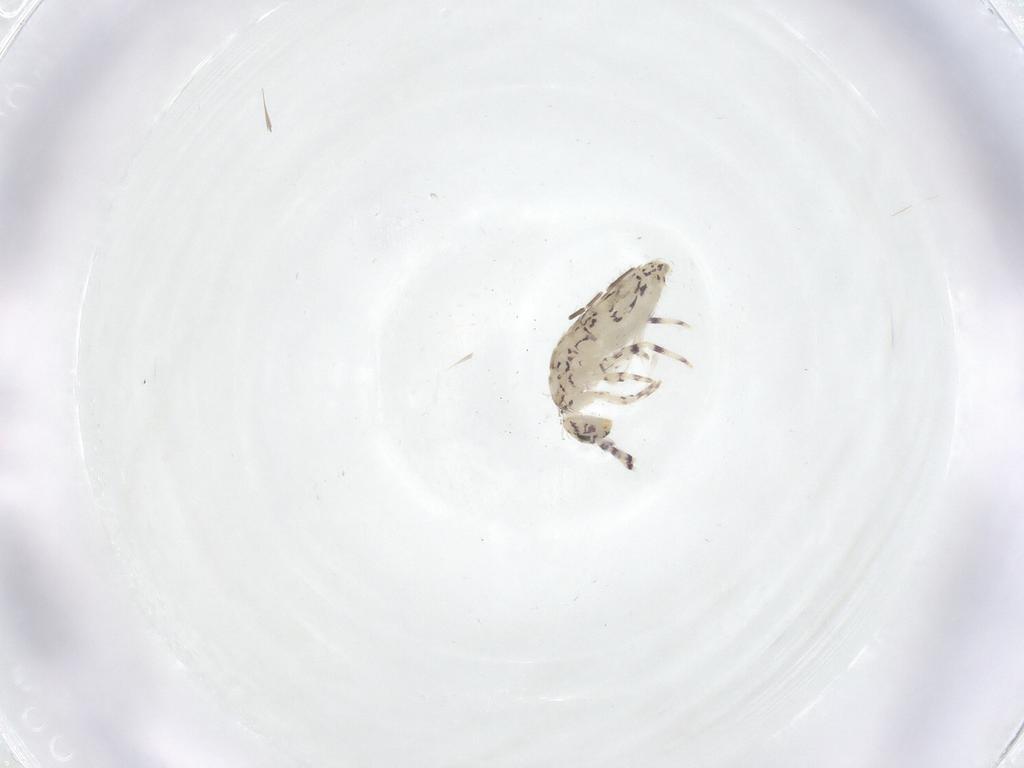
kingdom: Animalia
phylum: Arthropoda
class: Collembola
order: Entomobryomorpha
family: Entomobryidae
